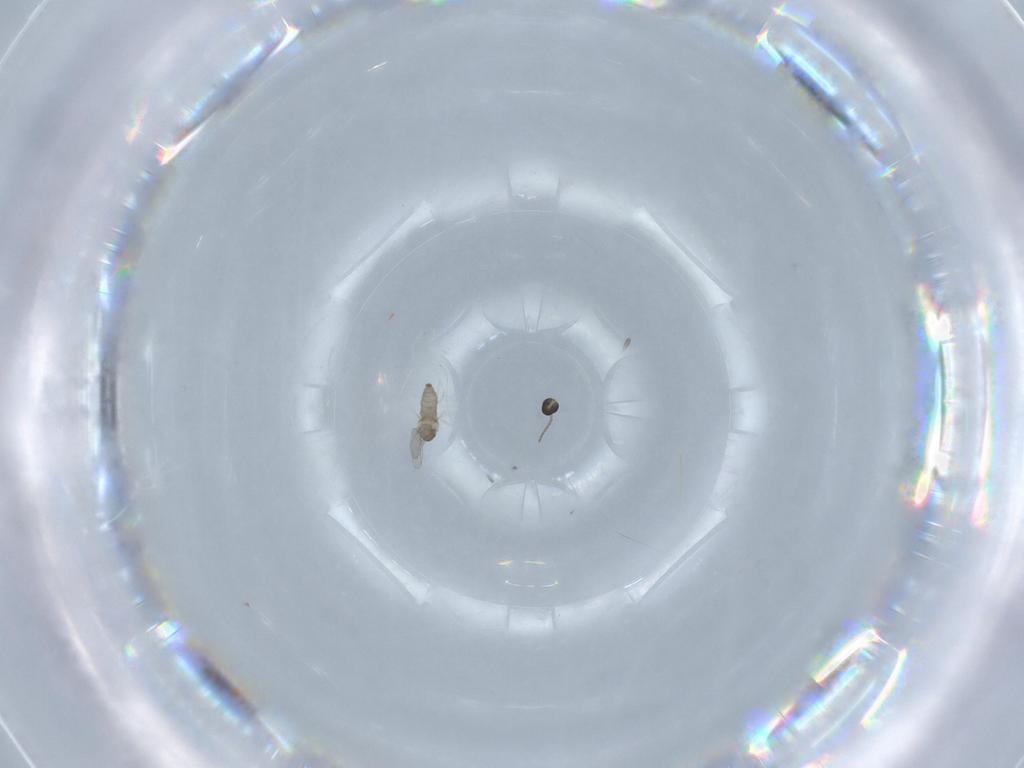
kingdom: Animalia
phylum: Arthropoda
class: Insecta
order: Diptera
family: Cecidomyiidae
